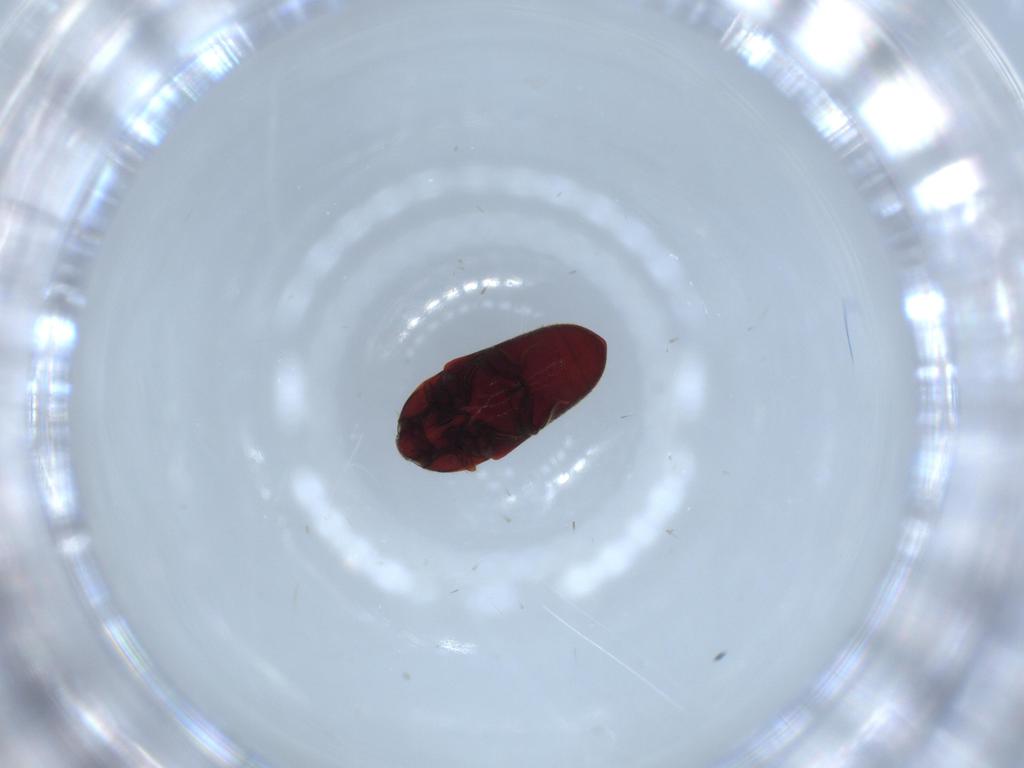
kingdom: Animalia
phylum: Arthropoda
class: Insecta
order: Coleoptera
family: Throscidae
